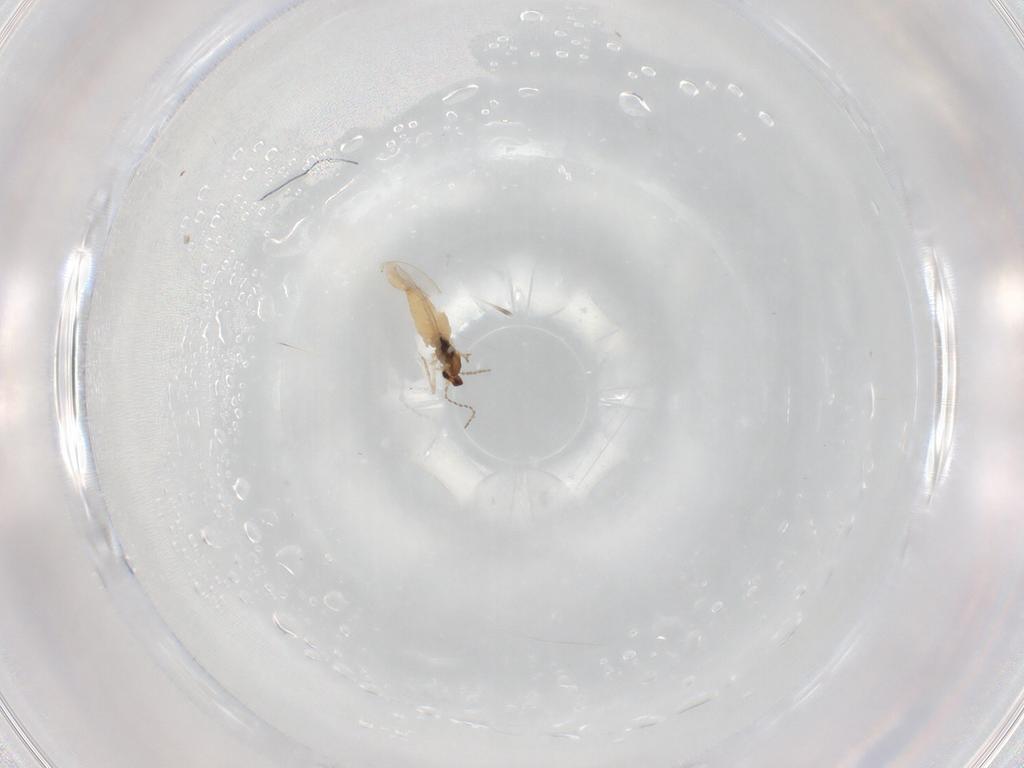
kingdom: Animalia
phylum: Arthropoda
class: Insecta
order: Diptera
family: Cecidomyiidae
